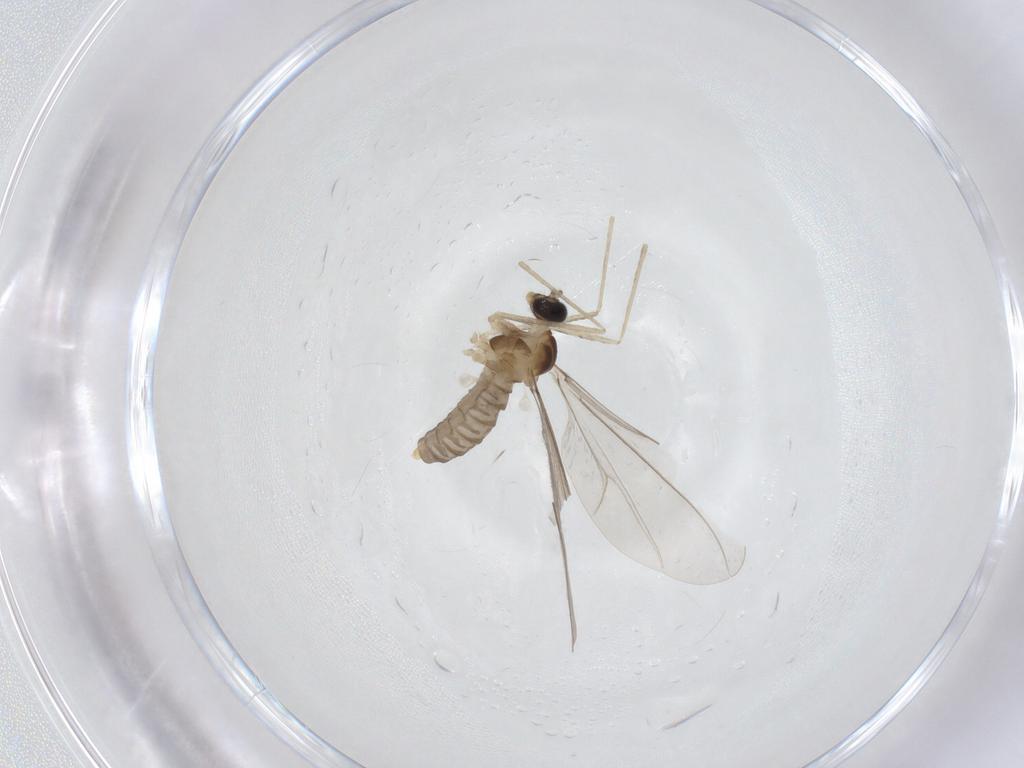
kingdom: Animalia
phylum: Arthropoda
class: Insecta
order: Diptera
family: Cecidomyiidae
